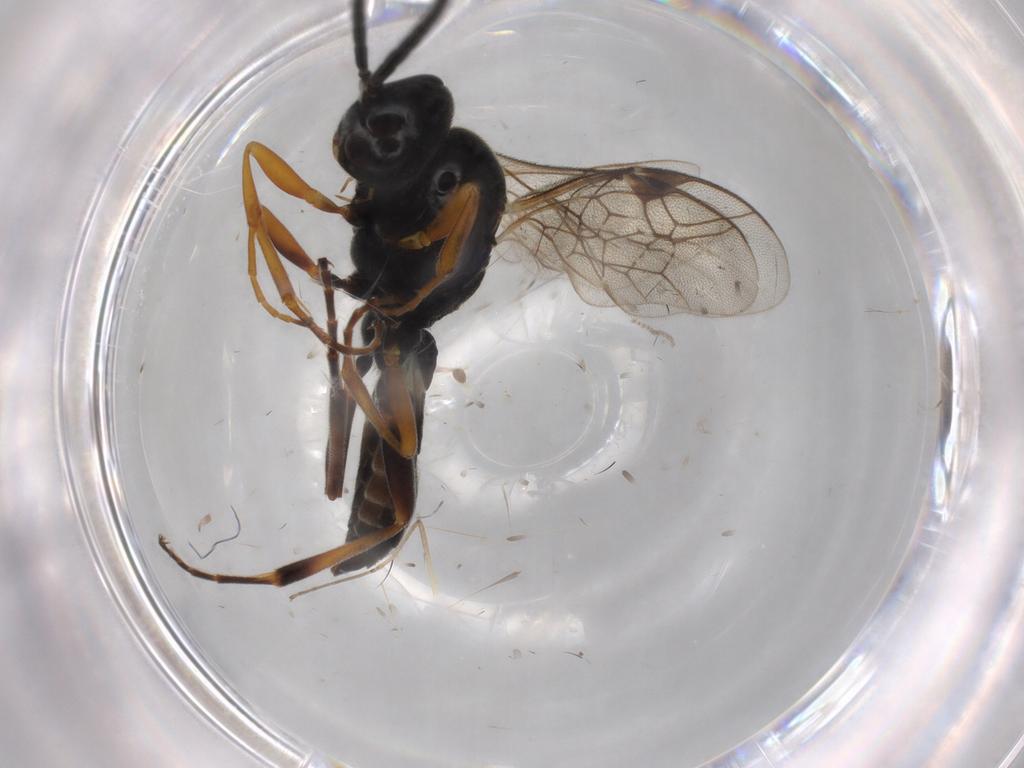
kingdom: Animalia
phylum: Arthropoda
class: Insecta
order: Hymenoptera
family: Ichneumonidae
